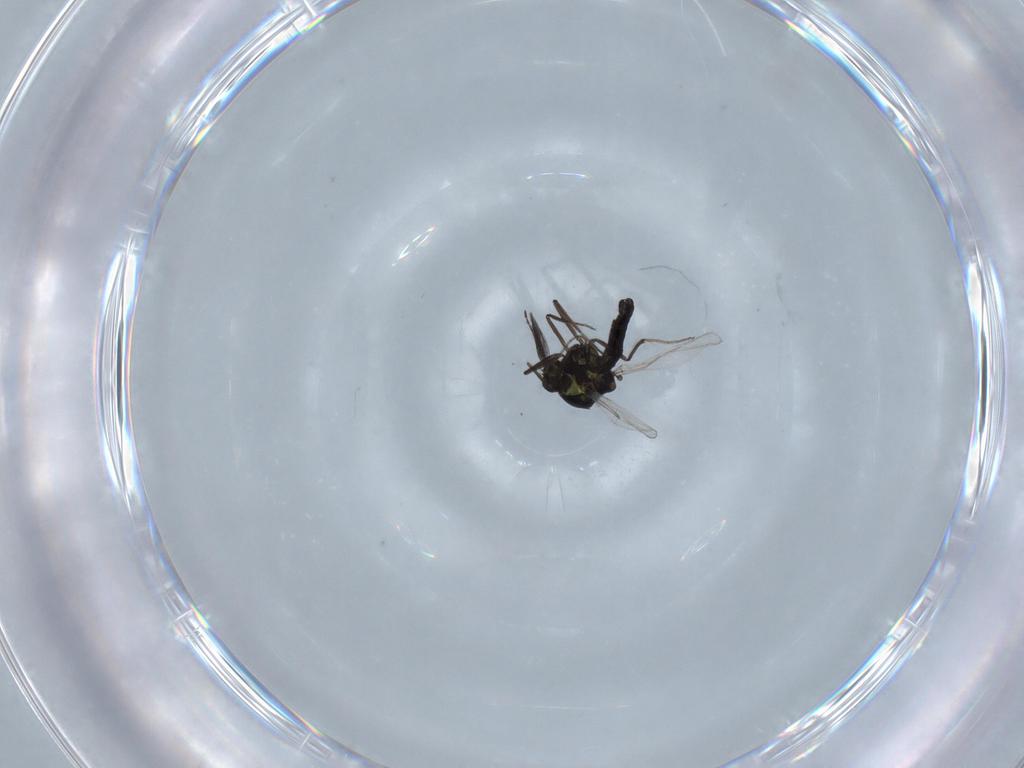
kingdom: Animalia
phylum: Arthropoda
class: Insecta
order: Diptera
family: Ceratopogonidae
